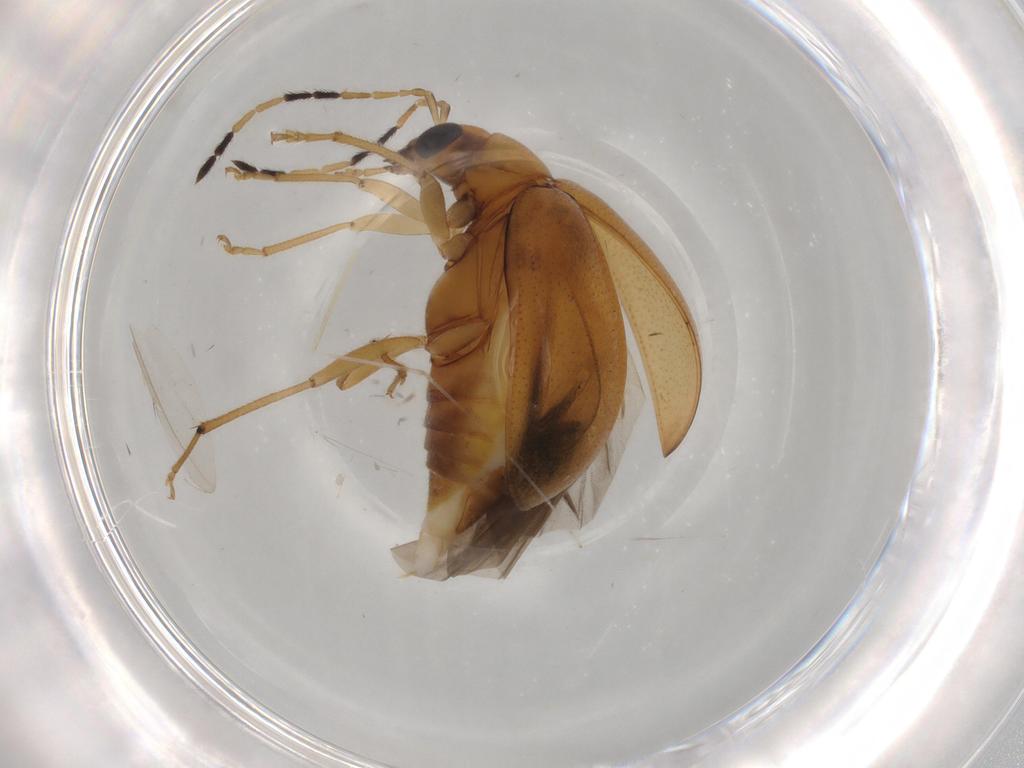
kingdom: Animalia
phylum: Arthropoda
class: Insecta
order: Coleoptera
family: Chrysomelidae
